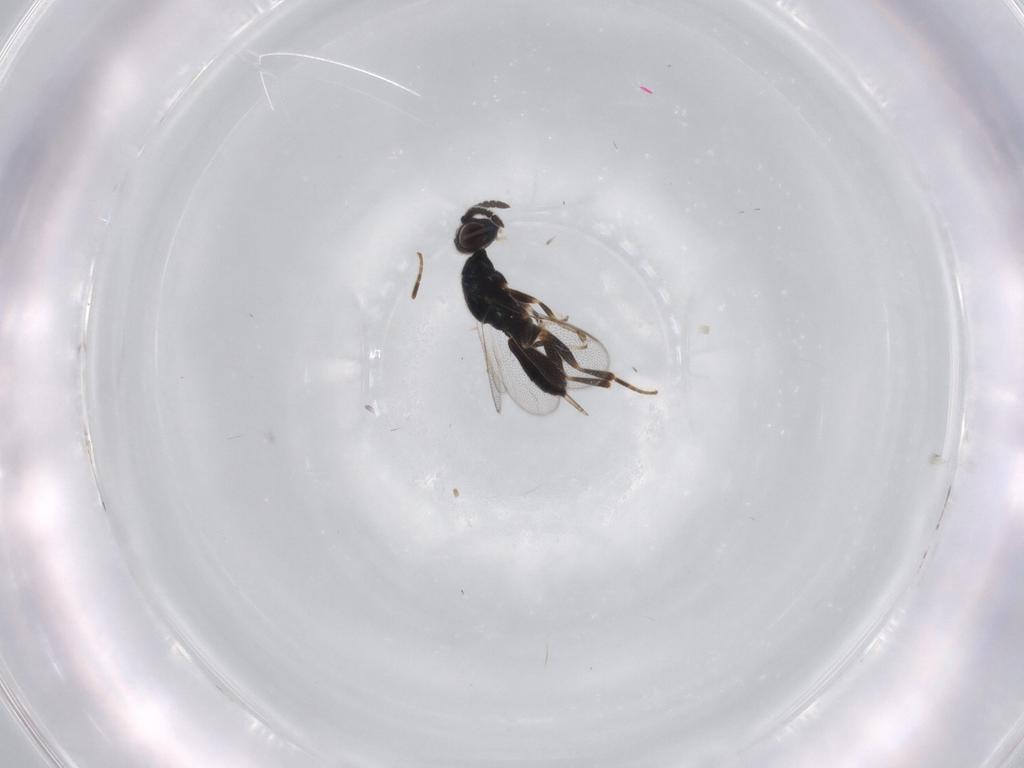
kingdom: Animalia
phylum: Arthropoda
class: Insecta
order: Hymenoptera
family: Cleonyminae
